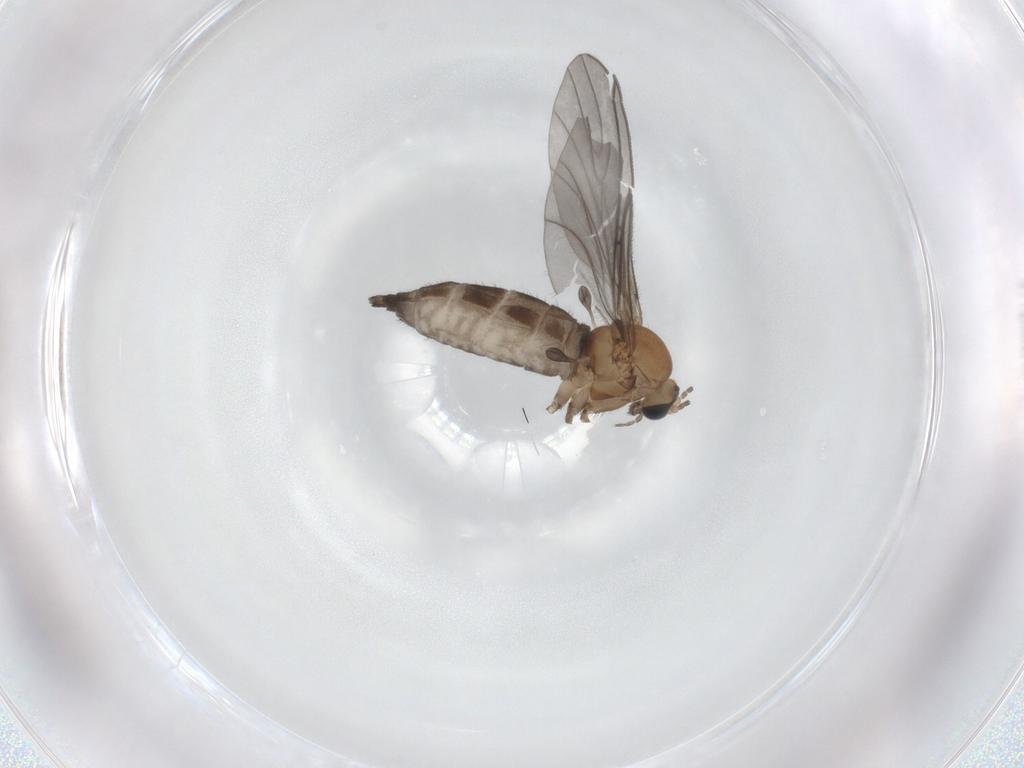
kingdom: Animalia
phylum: Arthropoda
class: Insecta
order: Diptera
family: Sciaridae
